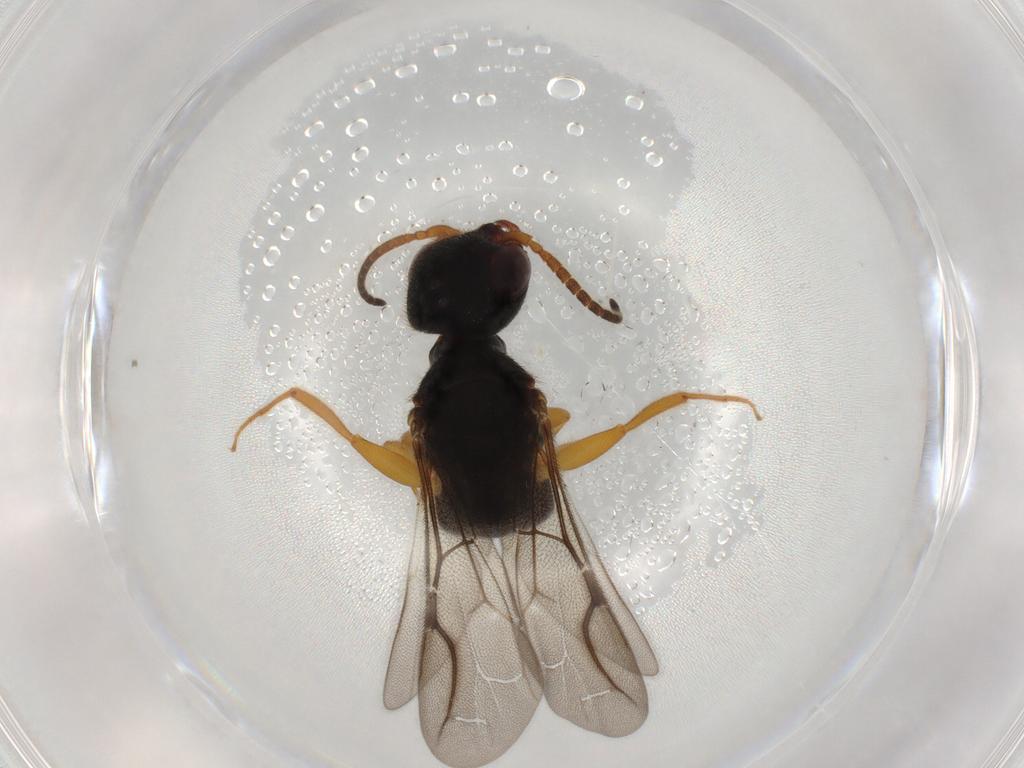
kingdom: Animalia
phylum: Arthropoda
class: Insecta
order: Hymenoptera
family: Bethylidae
